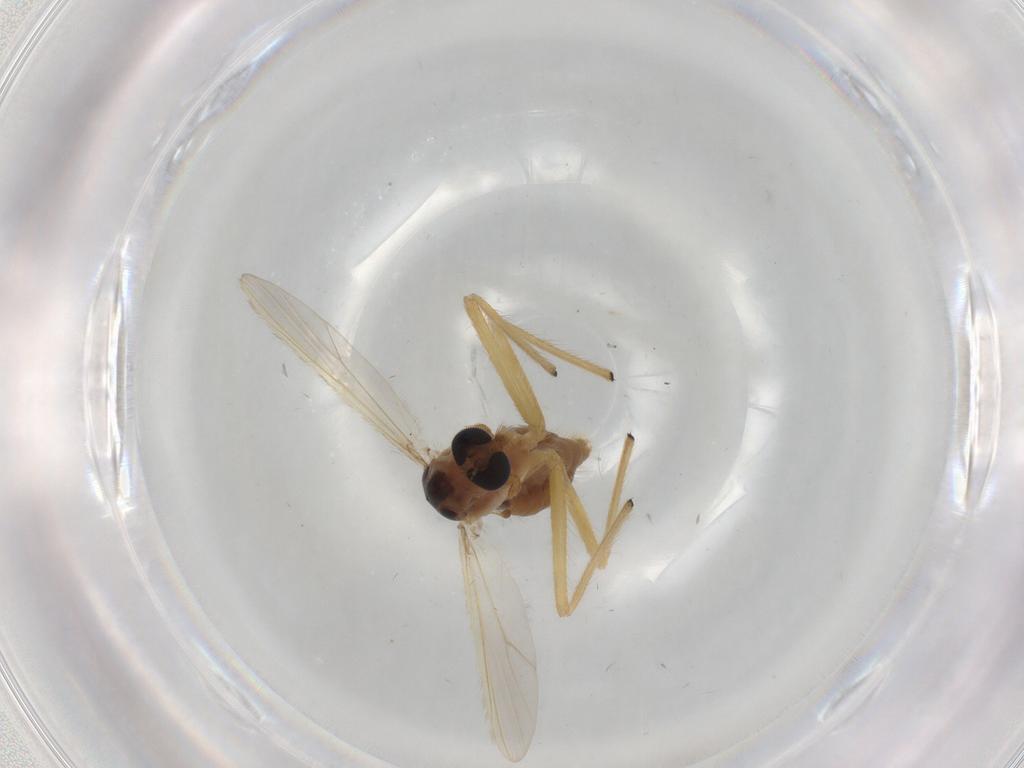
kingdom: Animalia
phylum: Arthropoda
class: Insecta
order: Diptera
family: Chironomidae
